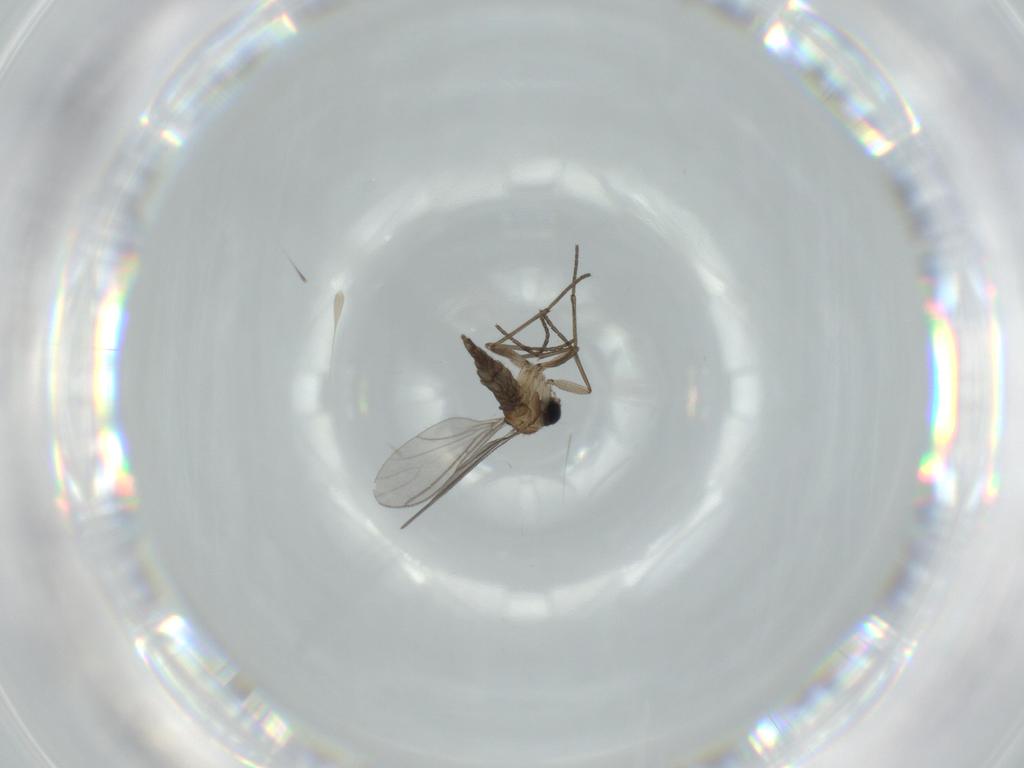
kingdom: Animalia
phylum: Arthropoda
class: Insecta
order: Diptera
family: Sciaridae
